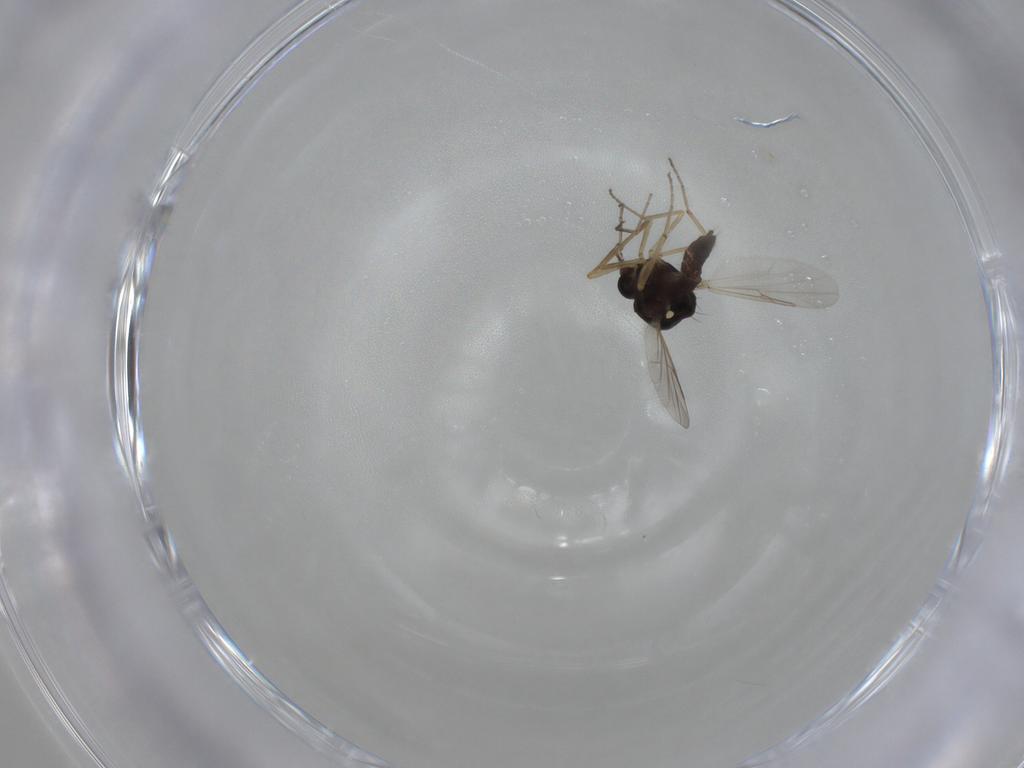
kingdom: Animalia
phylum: Arthropoda
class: Insecta
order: Diptera
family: Ceratopogonidae
